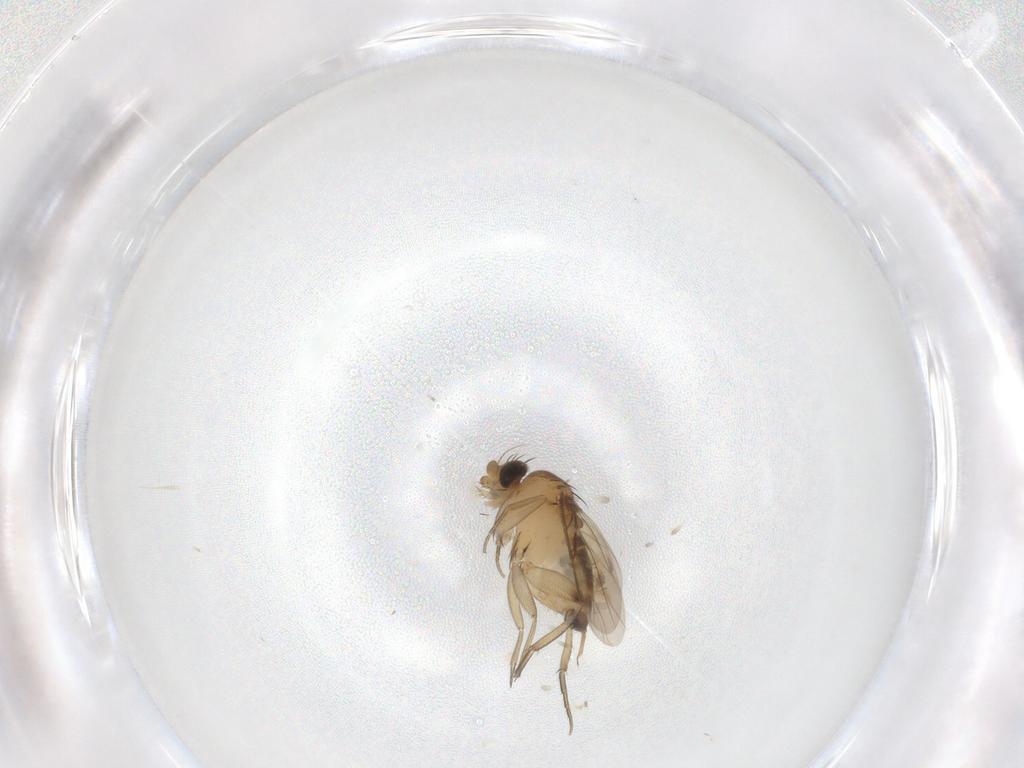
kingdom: Animalia
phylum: Arthropoda
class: Insecta
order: Diptera
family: Phoridae
